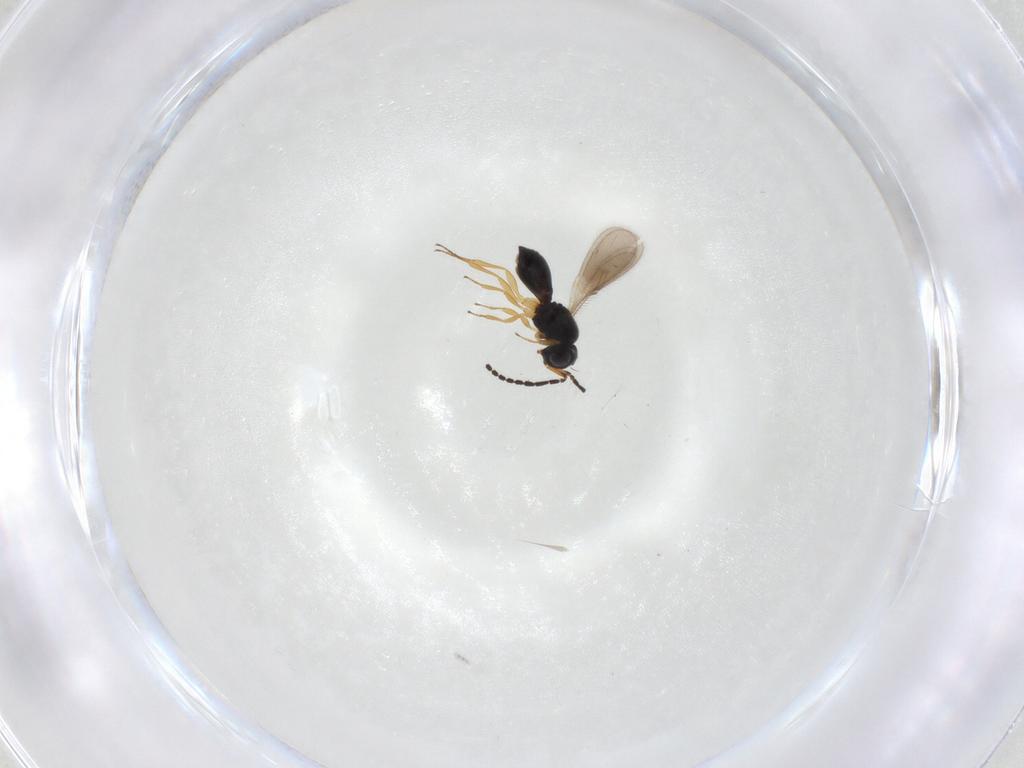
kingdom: Animalia
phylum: Arthropoda
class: Insecta
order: Hymenoptera
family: Scelionidae
